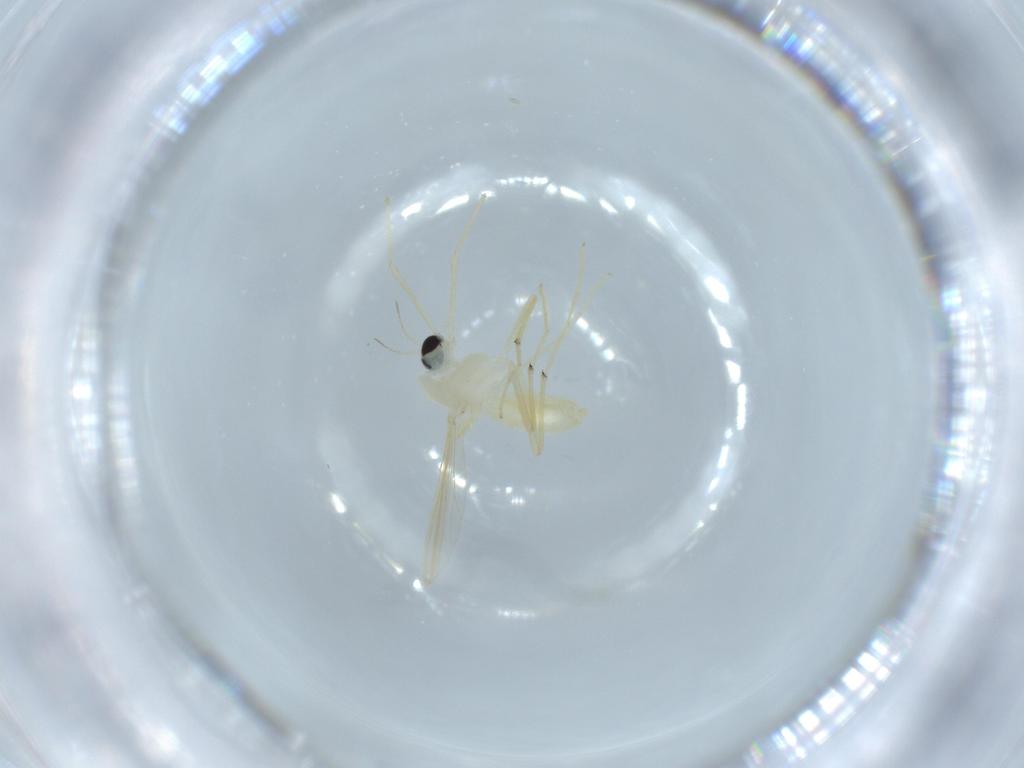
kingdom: Animalia
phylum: Arthropoda
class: Insecta
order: Diptera
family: Chironomidae
